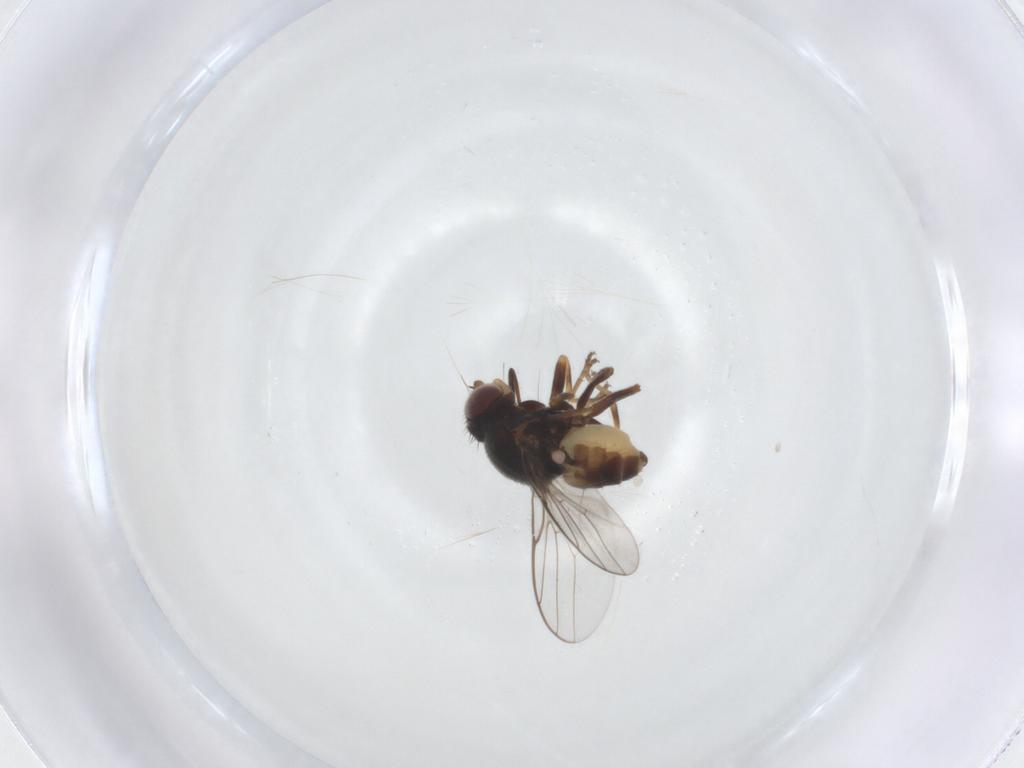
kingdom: Animalia
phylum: Arthropoda
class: Insecta
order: Diptera
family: Chloropidae
